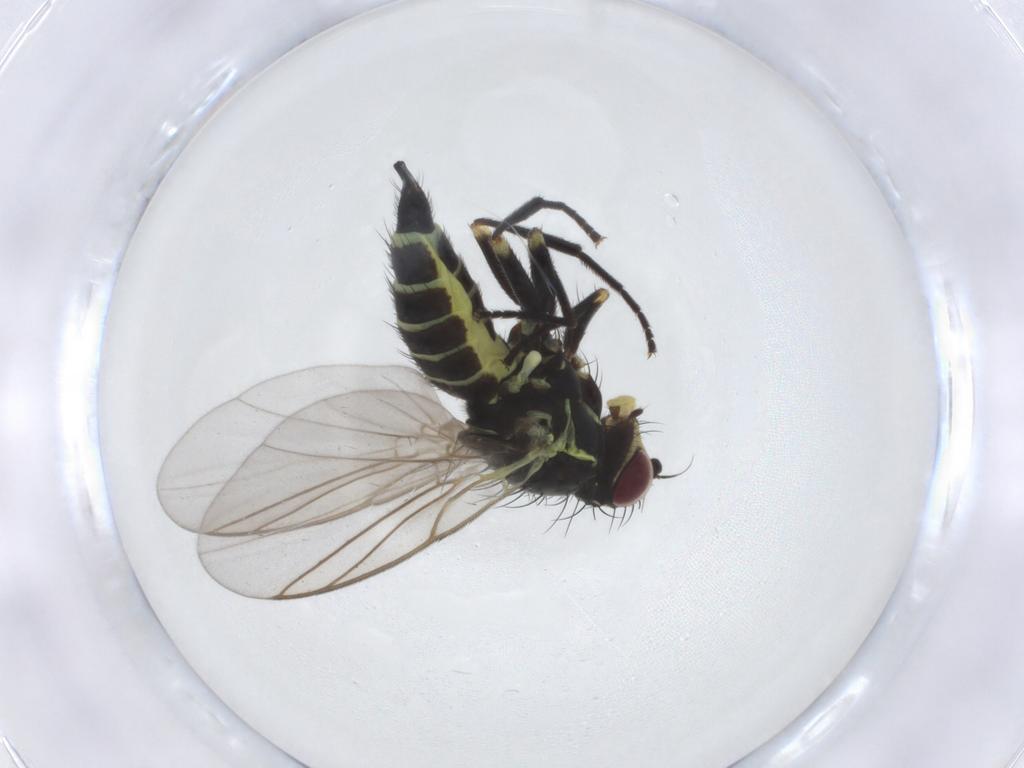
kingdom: Animalia
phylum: Arthropoda
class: Insecta
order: Diptera
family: Agromyzidae
